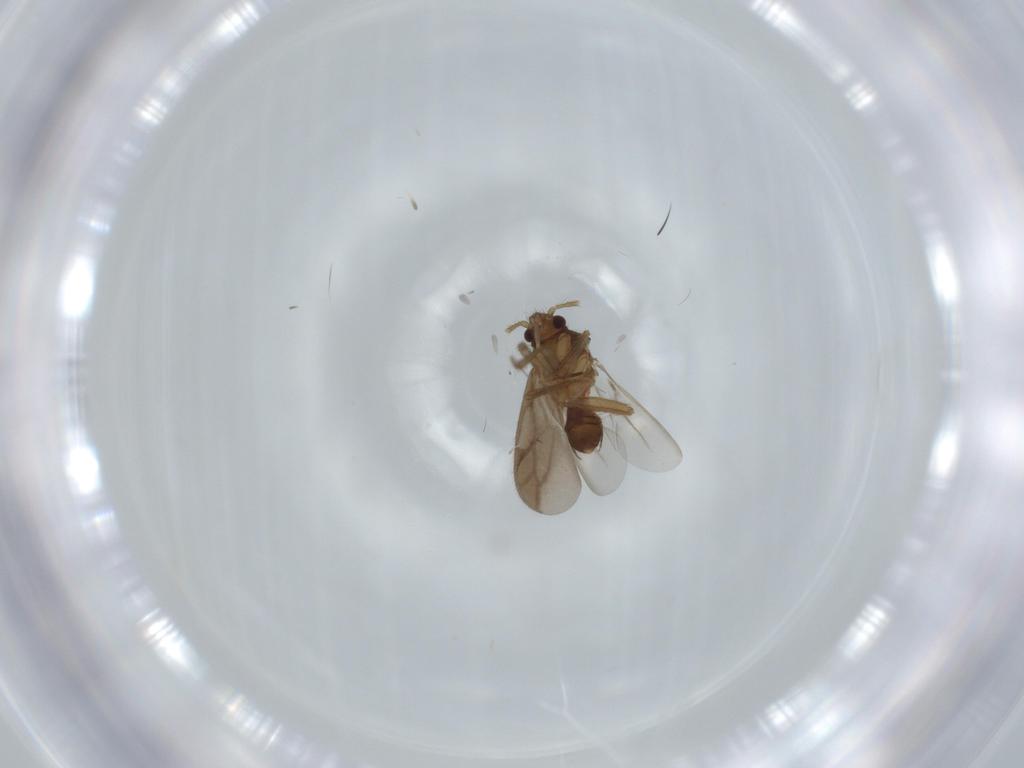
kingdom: Animalia
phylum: Arthropoda
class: Insecta
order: Hemiptera
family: Ceratocombidae
